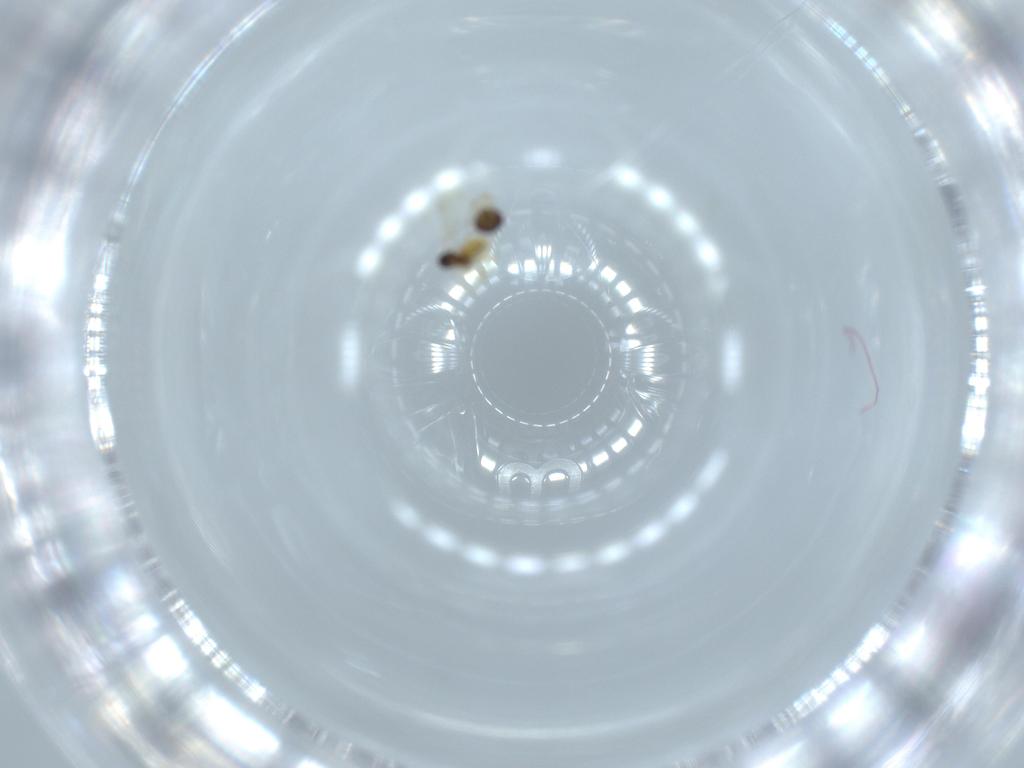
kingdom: Animalia
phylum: Arthropoda
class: Insecta
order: Hymenoptera
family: Aphelinidae
